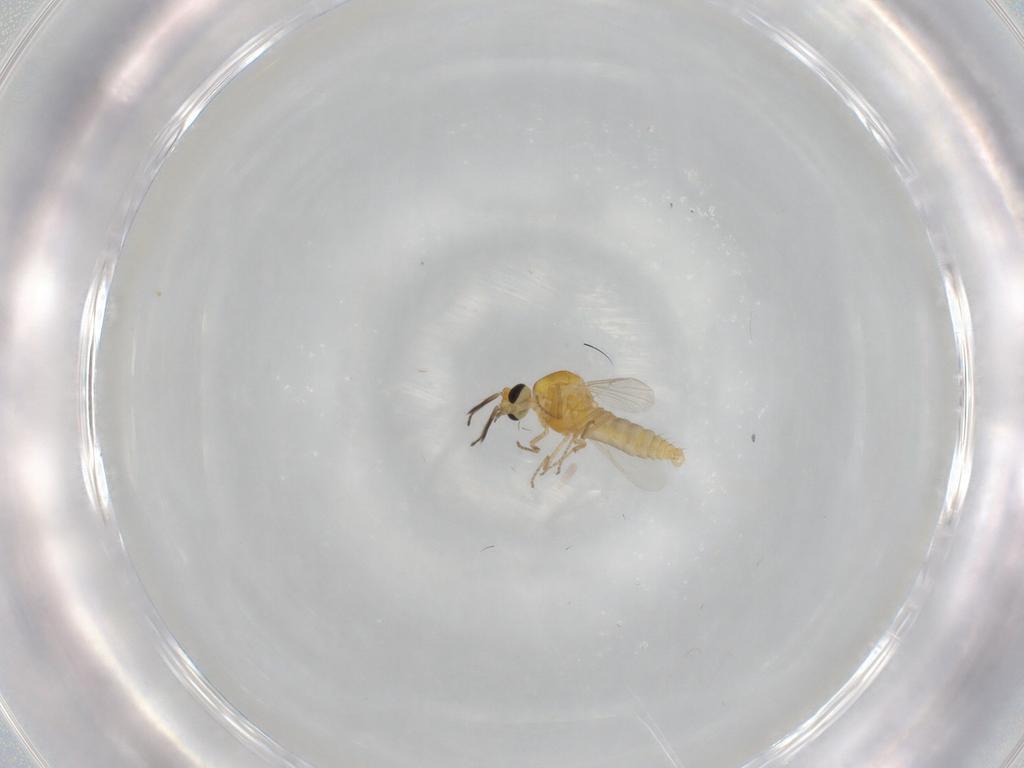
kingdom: Animalia
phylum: Arthropoda
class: Insecta
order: Diptera
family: Ceratopogonidae
